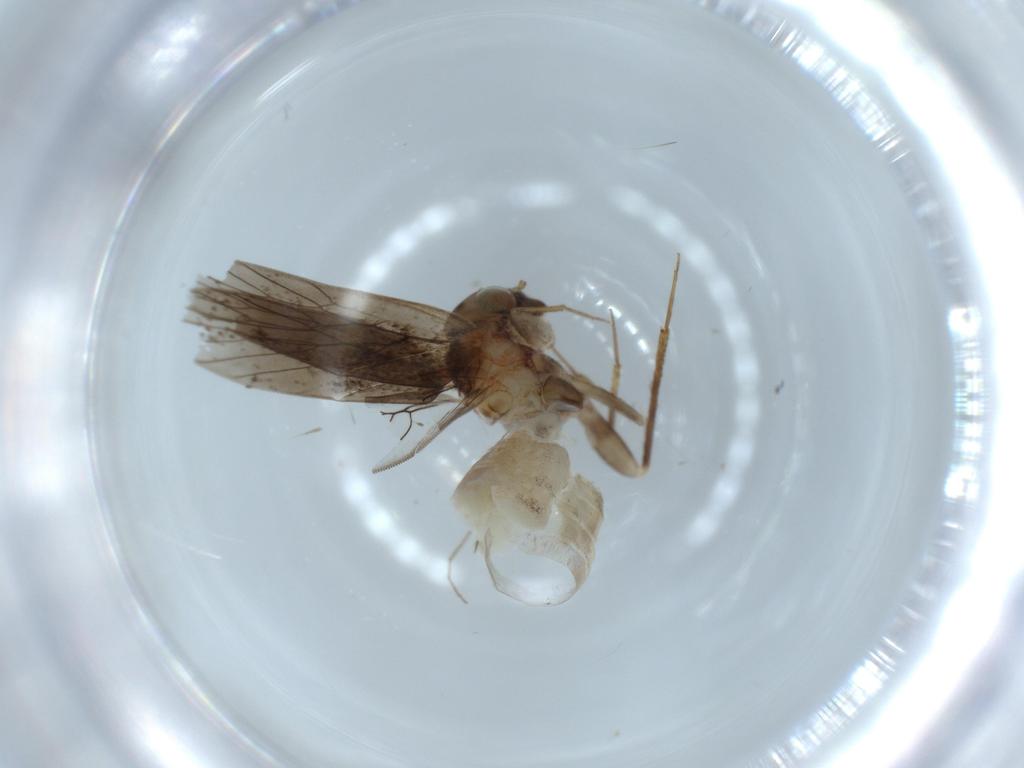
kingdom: Animalia
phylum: Arthropoda
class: Insecta
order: Psocodea
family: Lepidopsocidae
